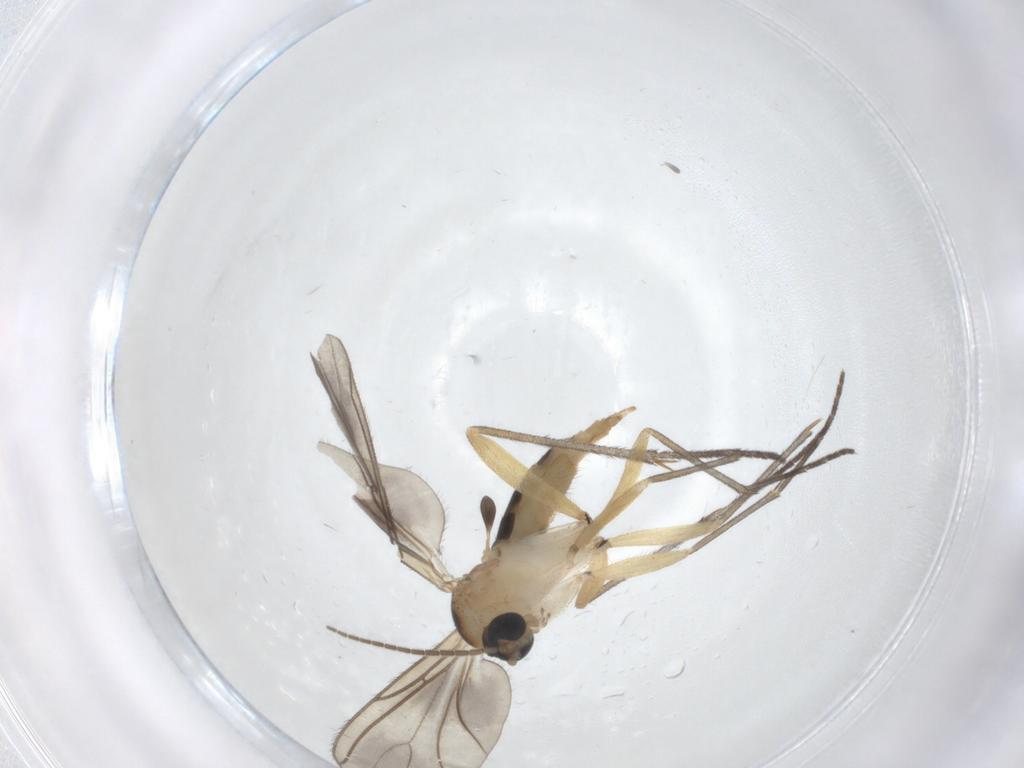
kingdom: Animalia
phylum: Arthropoda
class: Insecta
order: Diptera
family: Sciaridae
